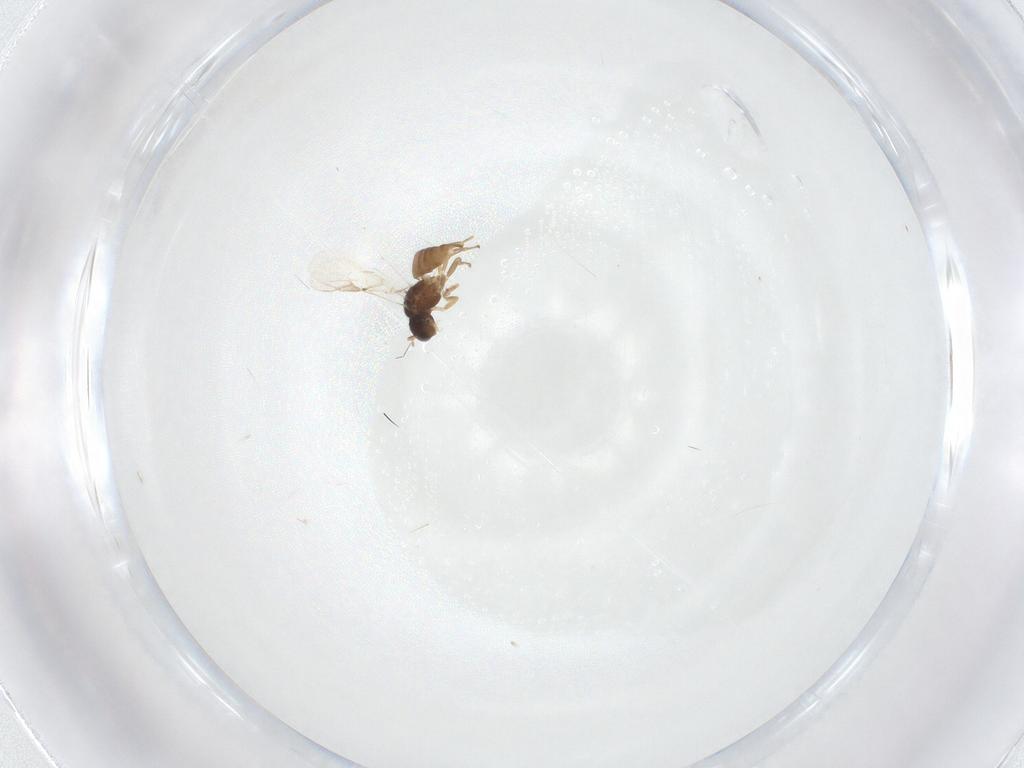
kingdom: Animalia
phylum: Arthropoda
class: Insecta
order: Hymenoptera
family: Braconidae
